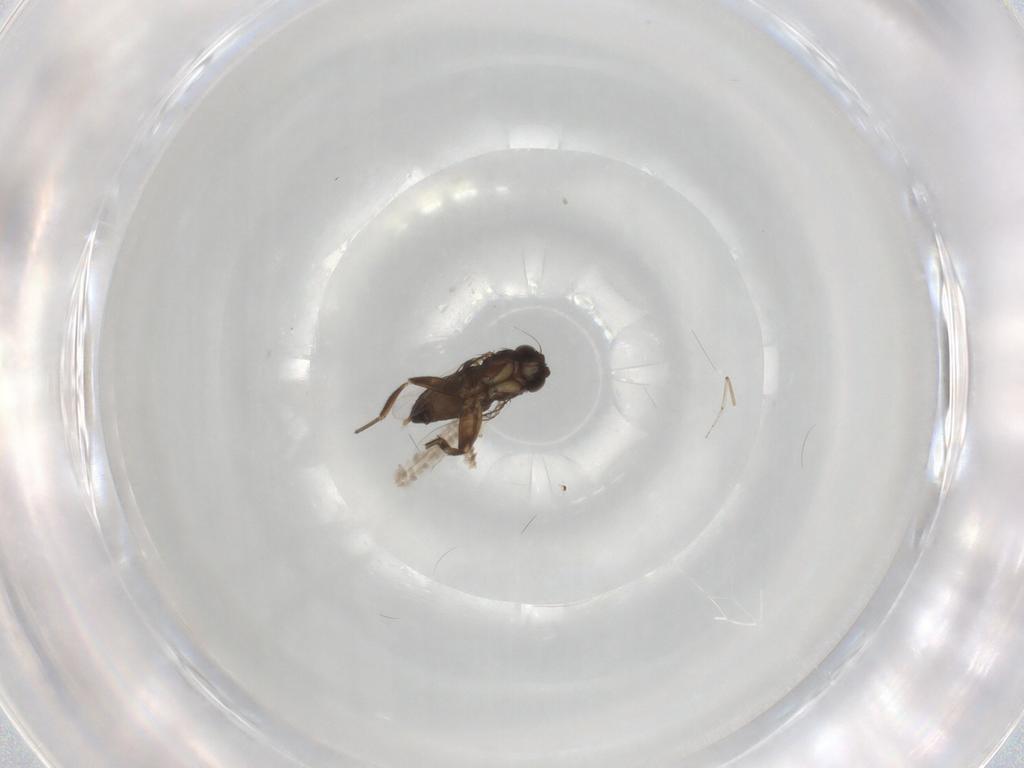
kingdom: Animalia
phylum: Arthropoda
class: Insecta
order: Diptera
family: Phoridae
